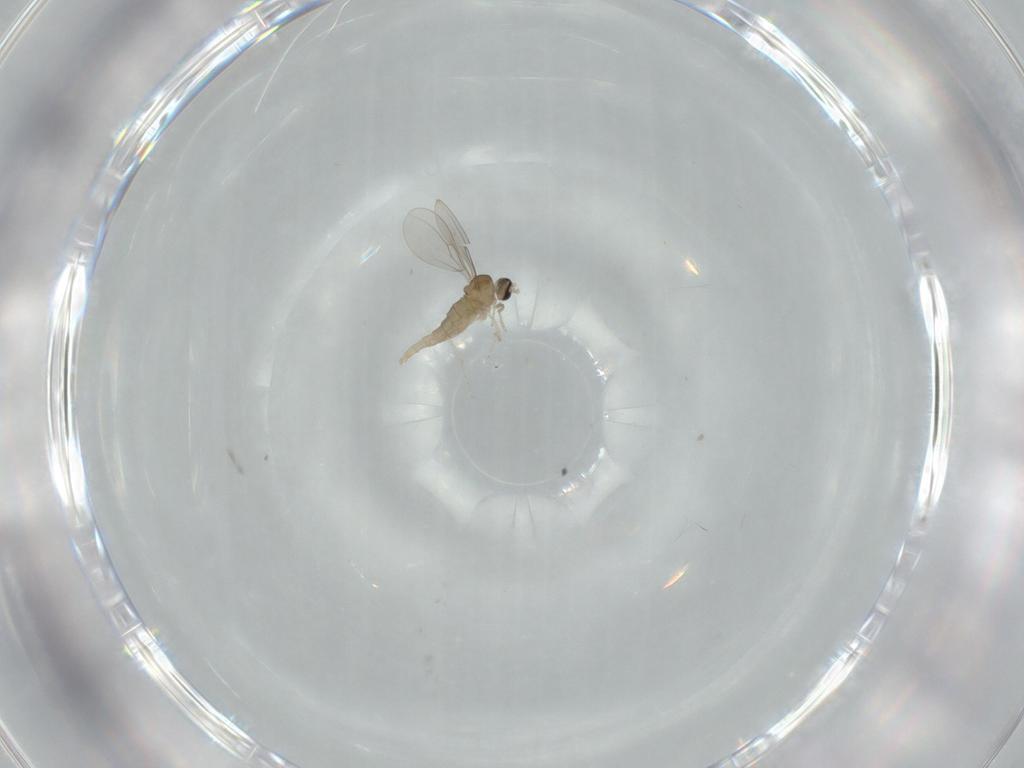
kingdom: Animalia
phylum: Arthropoda
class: Insecta
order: Diptera
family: Hybotidae
